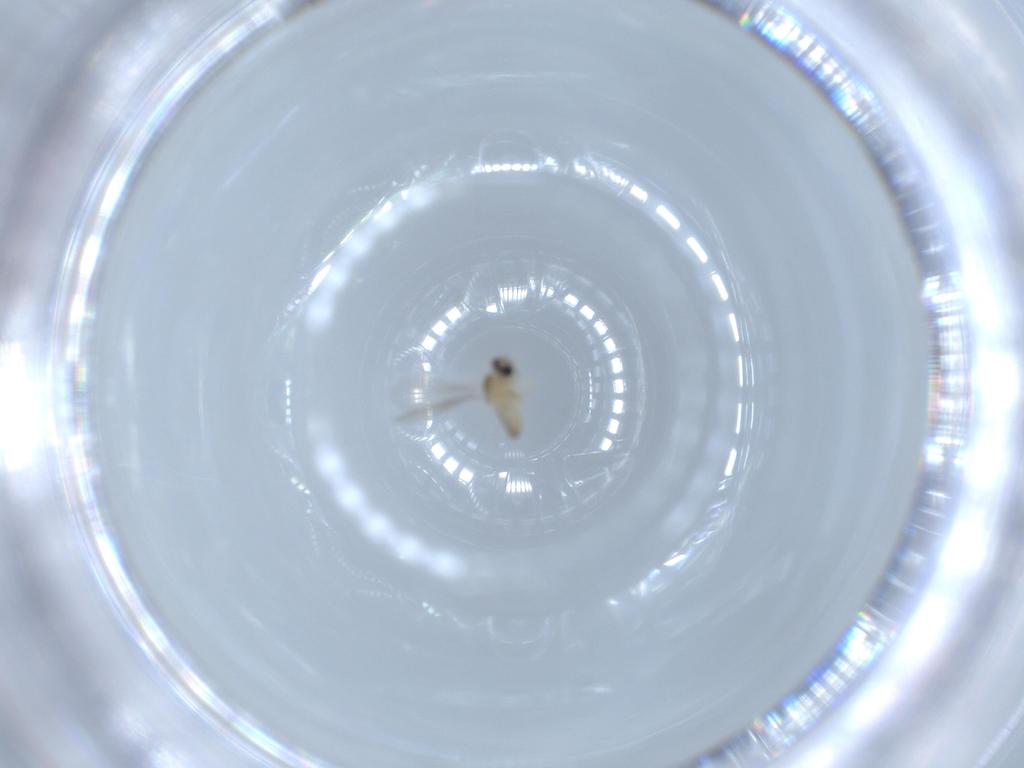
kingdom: Animalia
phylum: Arthropoda
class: Insecta
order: Diptera
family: Cecidomyiidae
